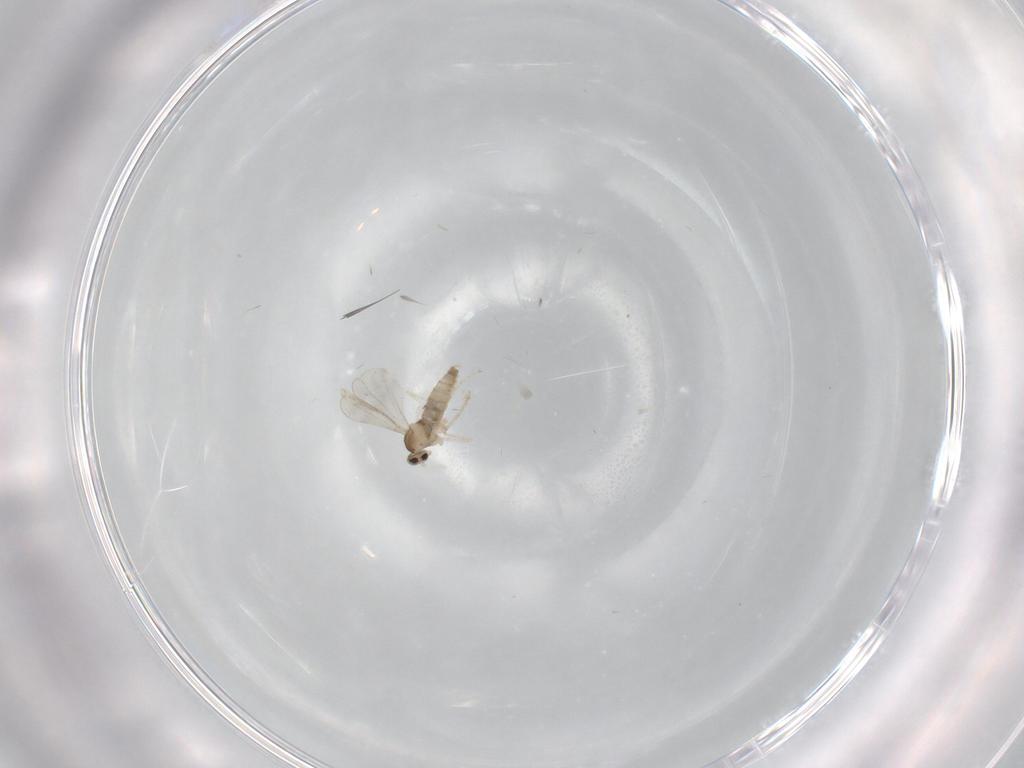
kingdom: Animalia
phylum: Arthropoda
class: Insecta
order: Diptera
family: Cecidomyiidae
